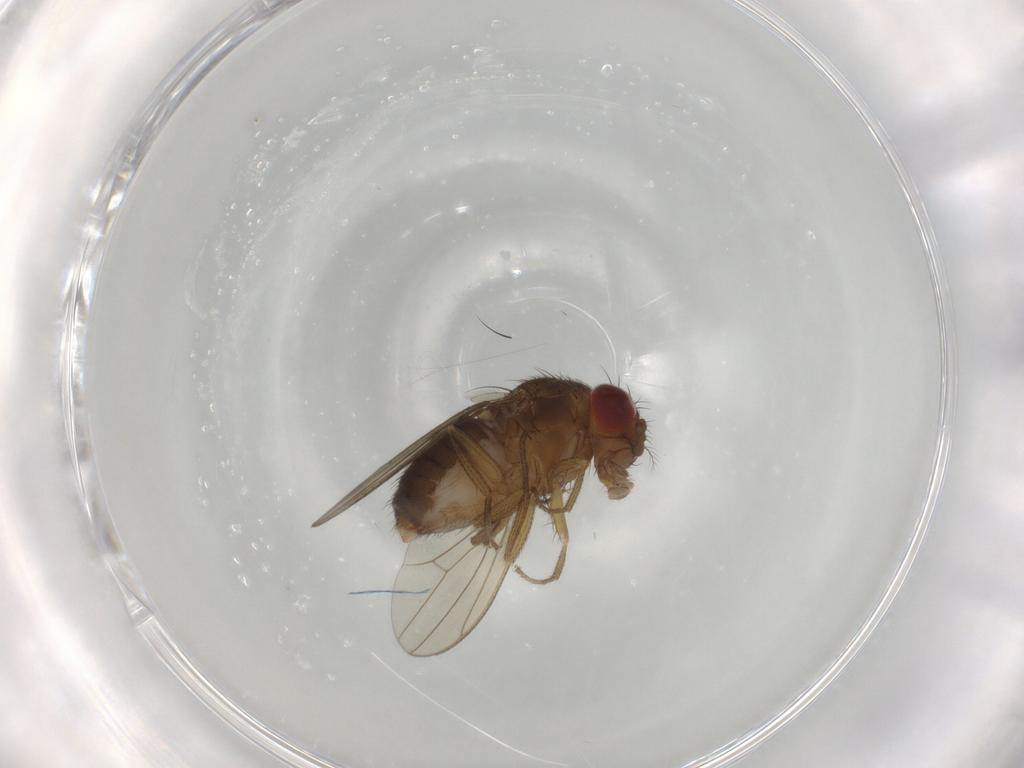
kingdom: Animalia
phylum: Arthropoda
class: Insecta
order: Diptera
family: Drosophilidae
